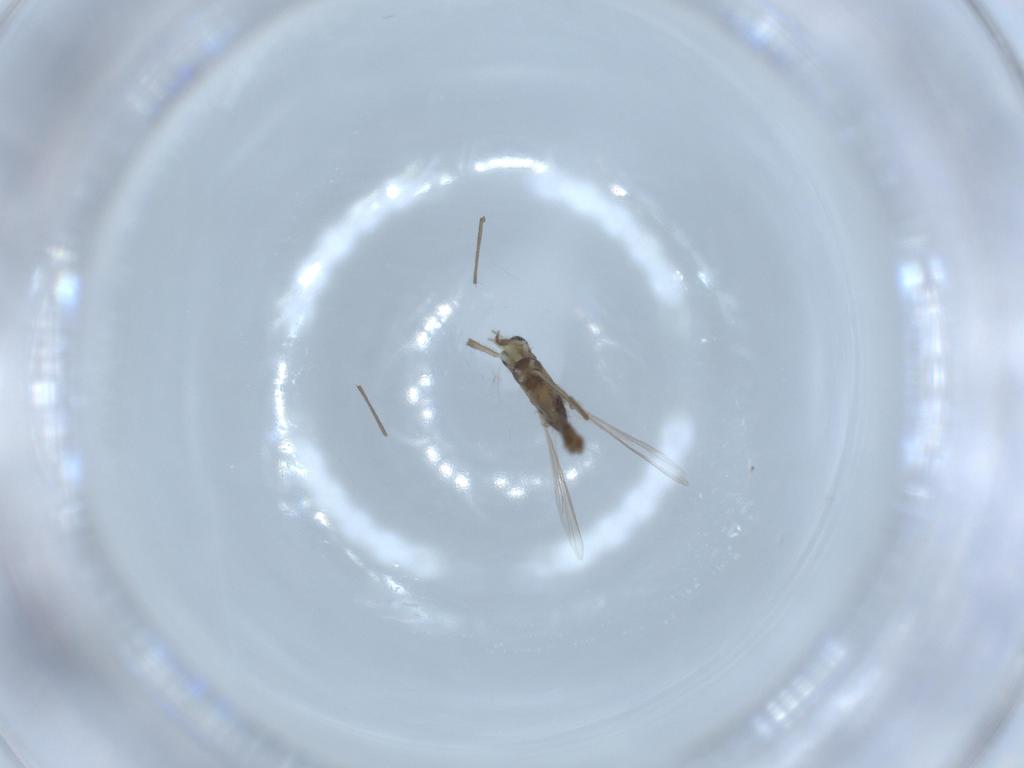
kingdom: Animalia
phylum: Arthropoda
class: Insecta
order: Diptera
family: Chironomidae
